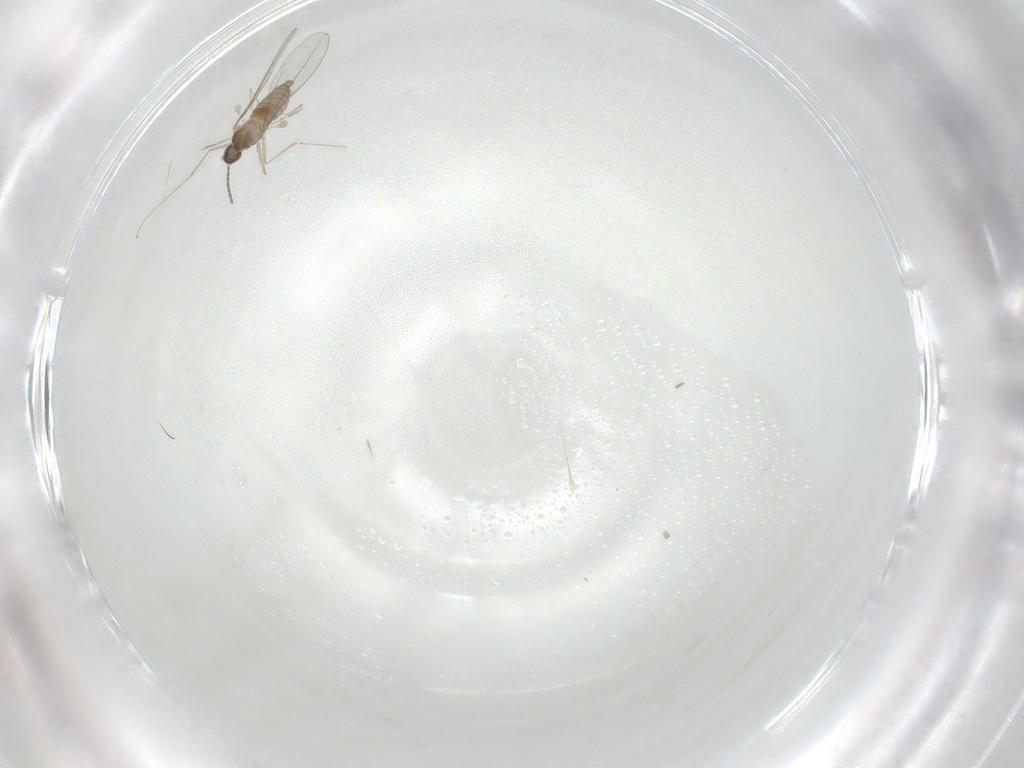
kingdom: Animalia
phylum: Arthropoda
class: Insecta
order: Diptera
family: Cecidomyiidae
